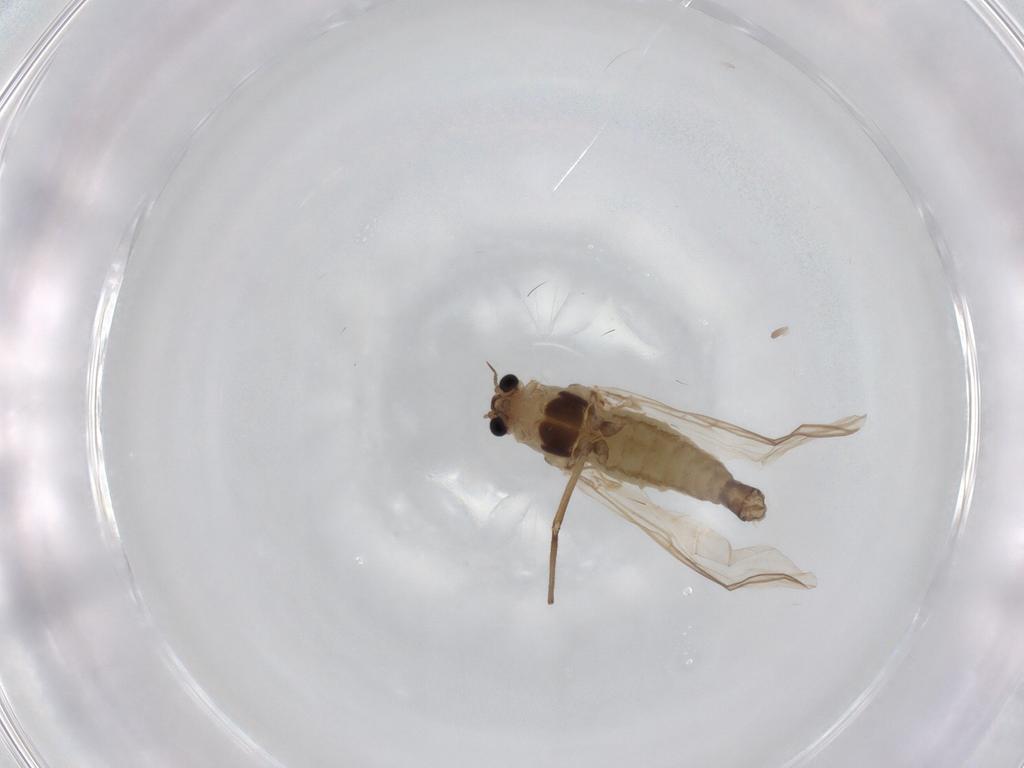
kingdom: Animalia
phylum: Arthropoda
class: Insecta
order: Diptera
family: Chironomidae
